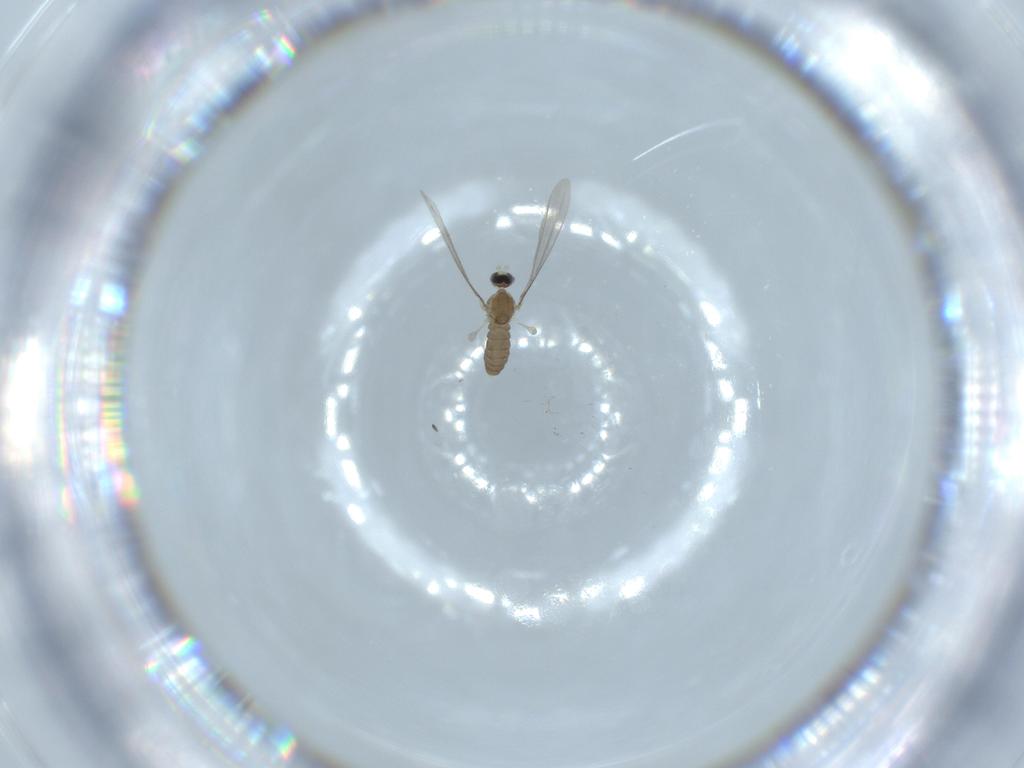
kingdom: Animalia
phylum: Arthropoda
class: Insecta
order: Diptera
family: Cecidomyiidae
